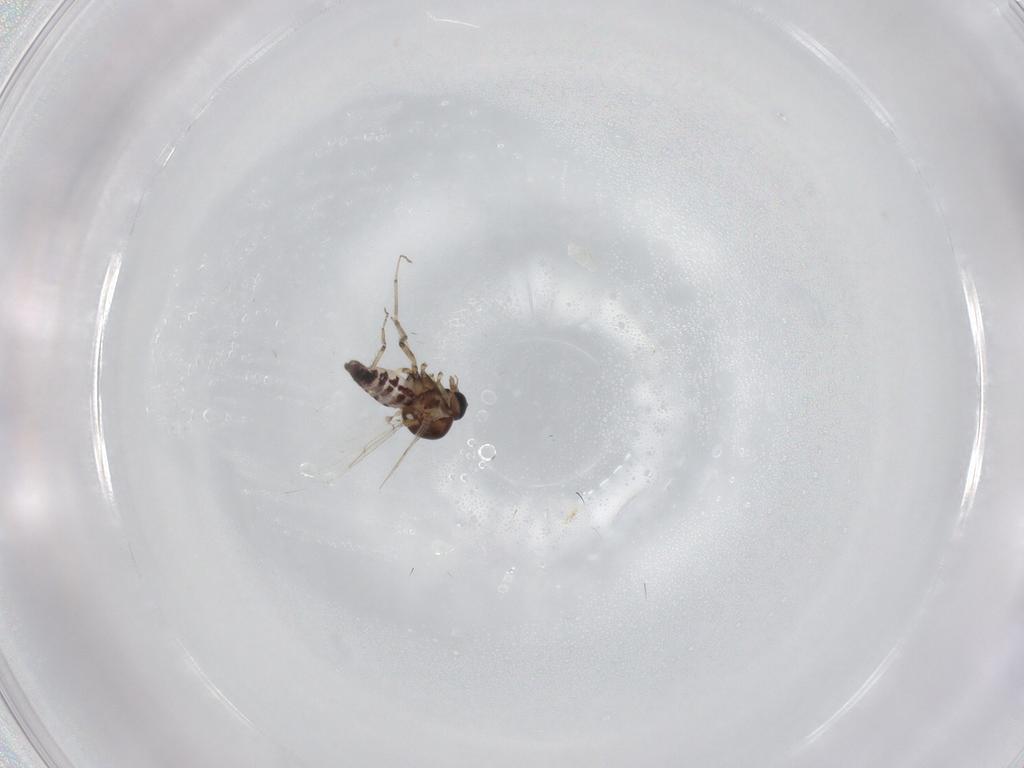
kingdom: Animalia
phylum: Arthropoda
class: Insecta
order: Diptera
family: Ceratopogonidae
